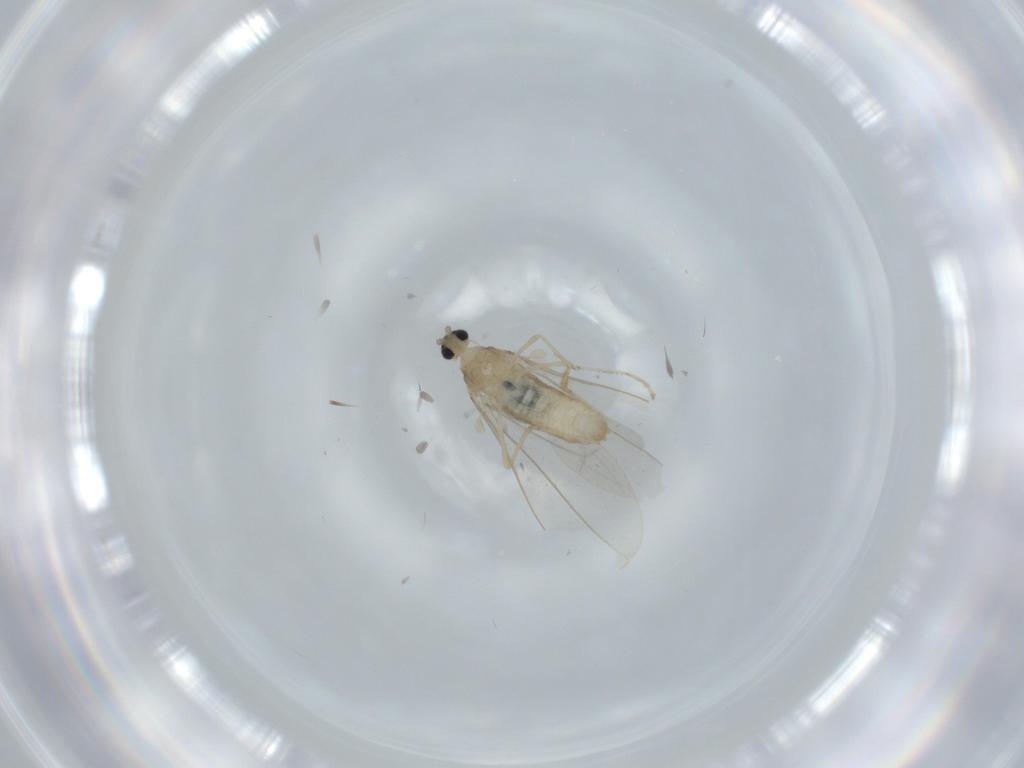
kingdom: Animalia
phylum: Arthropoda
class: Insecta
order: Diptera
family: Cecidomyiidae
